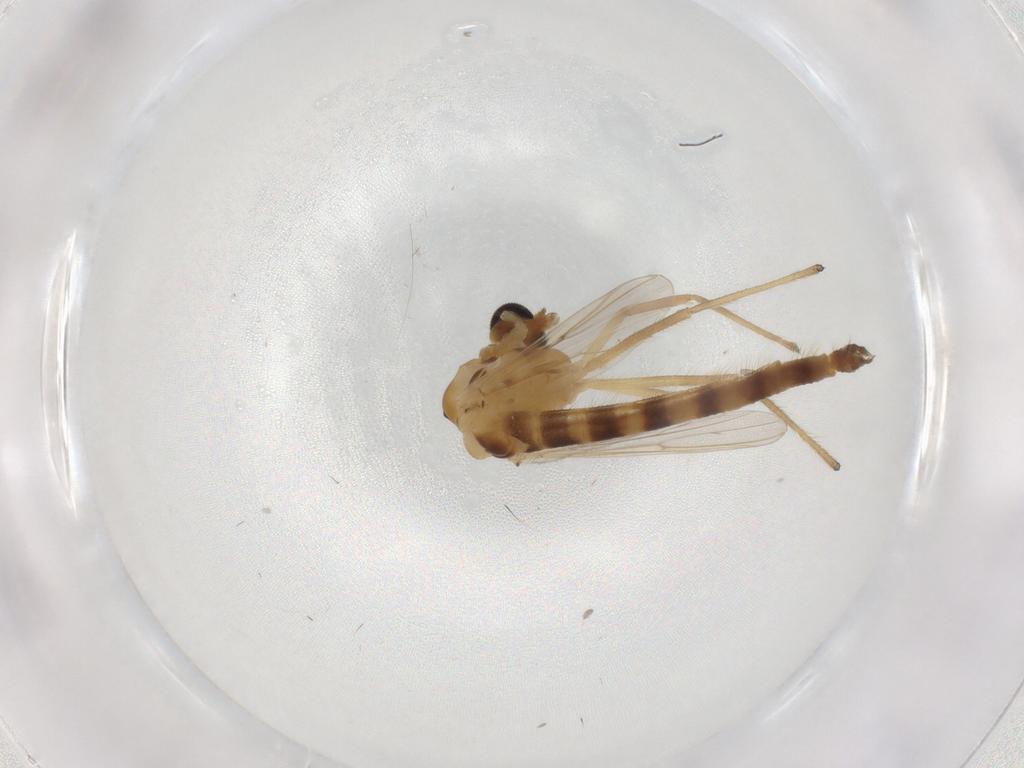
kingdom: Animalia
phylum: Arthropoda
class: Insecta
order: Diptera
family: Chironomidae
